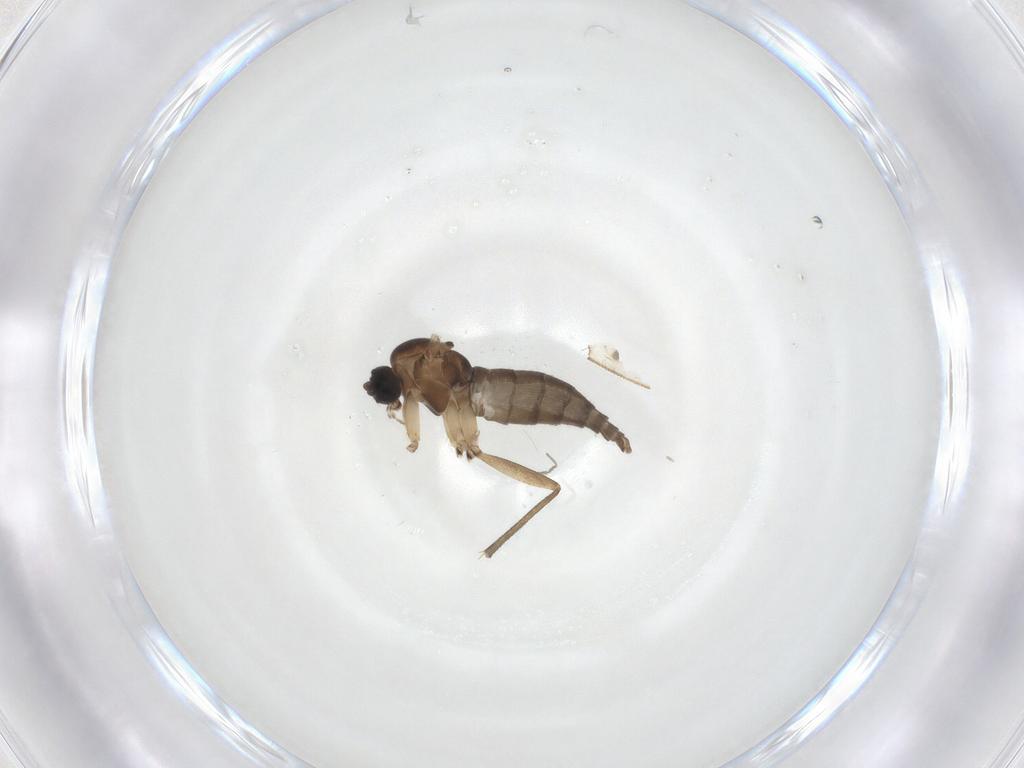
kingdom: Animalia
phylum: Arthropoda
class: Insecta
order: Diptera
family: Sciaridae
